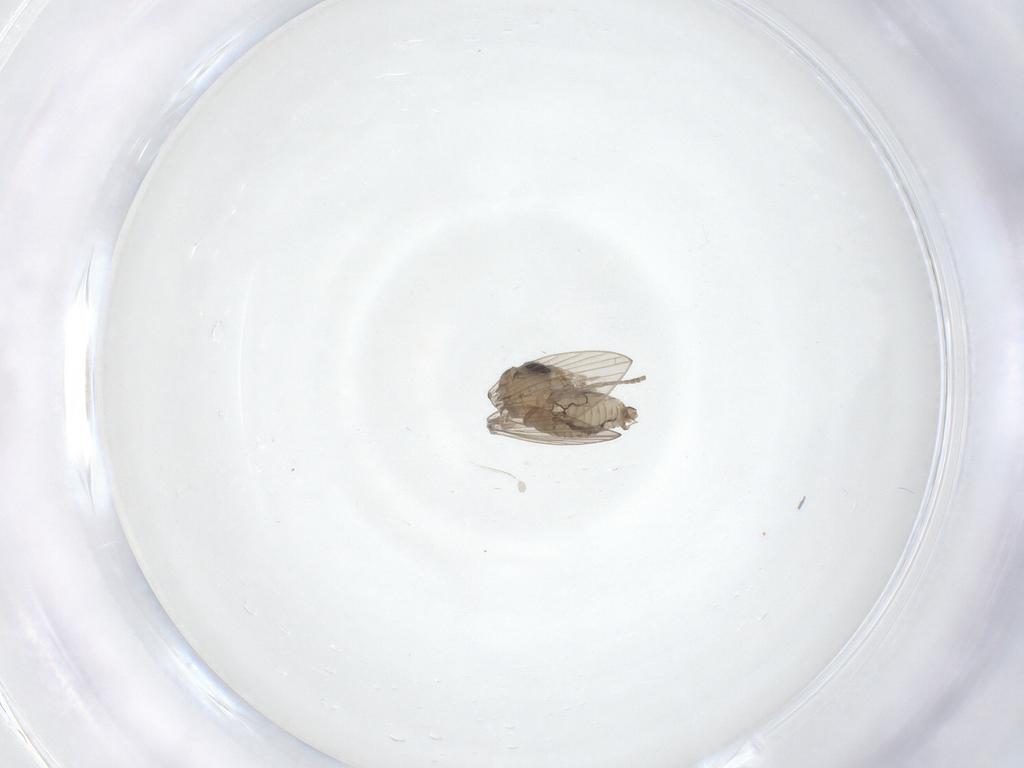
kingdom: Animalia
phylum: Arthropoda
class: Insecta
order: Diptera
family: Psychodidae
